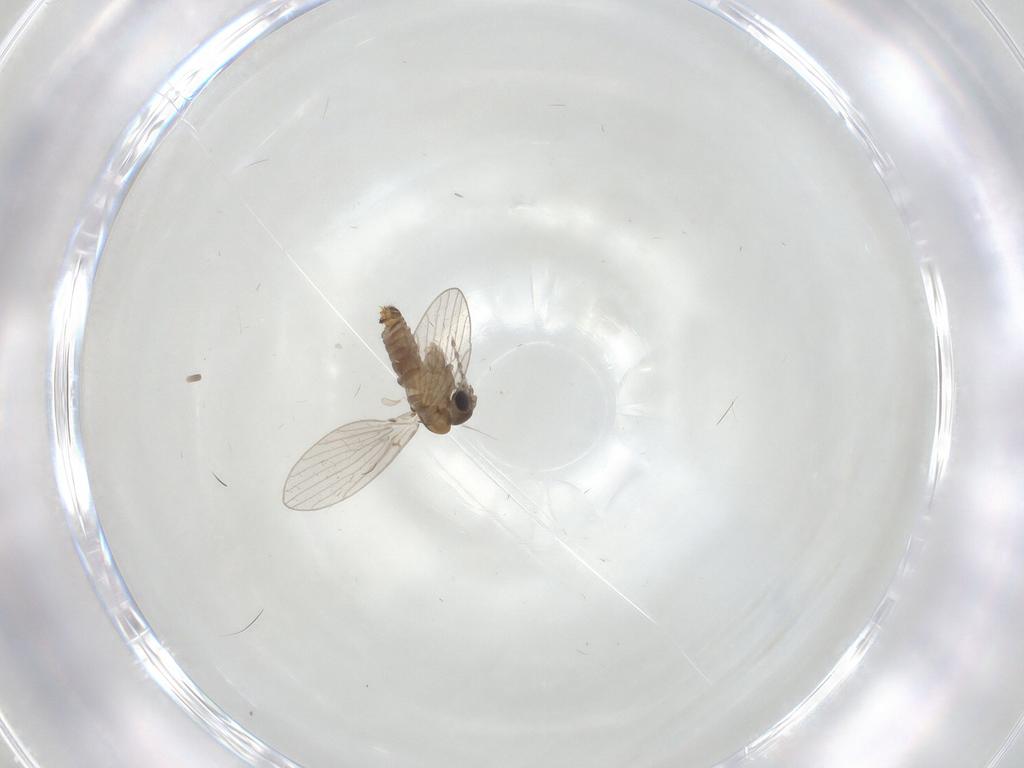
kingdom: Animalia
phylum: Arthropoda
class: Insecta
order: Diptera
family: Psychodidae
